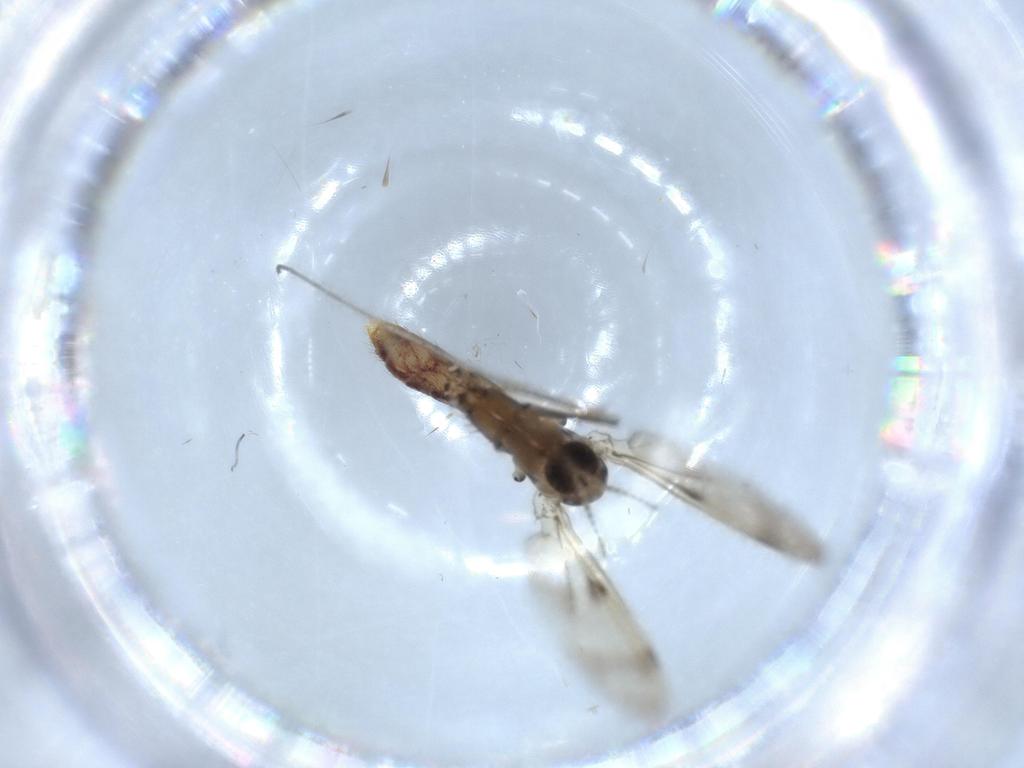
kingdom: Animalia
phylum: Arthropoda
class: Insecta
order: Diptera
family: Mycetophilidae
